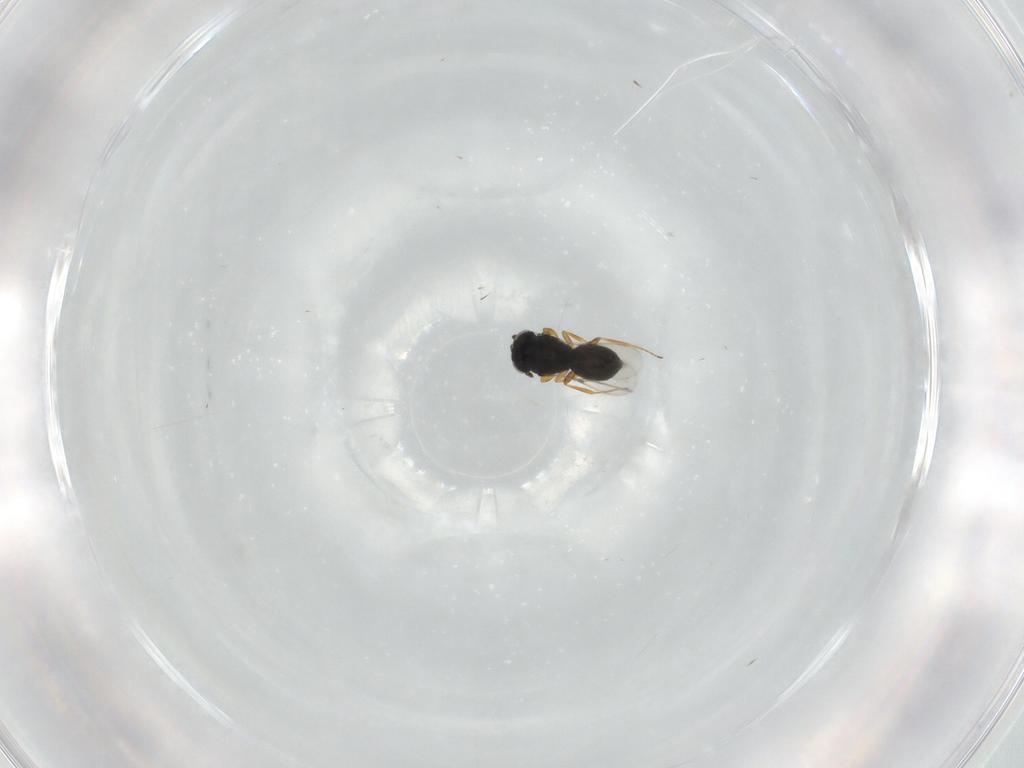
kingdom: Animalia
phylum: Arthropoda
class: Insecta
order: Hymenoptera
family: Scelionidae
